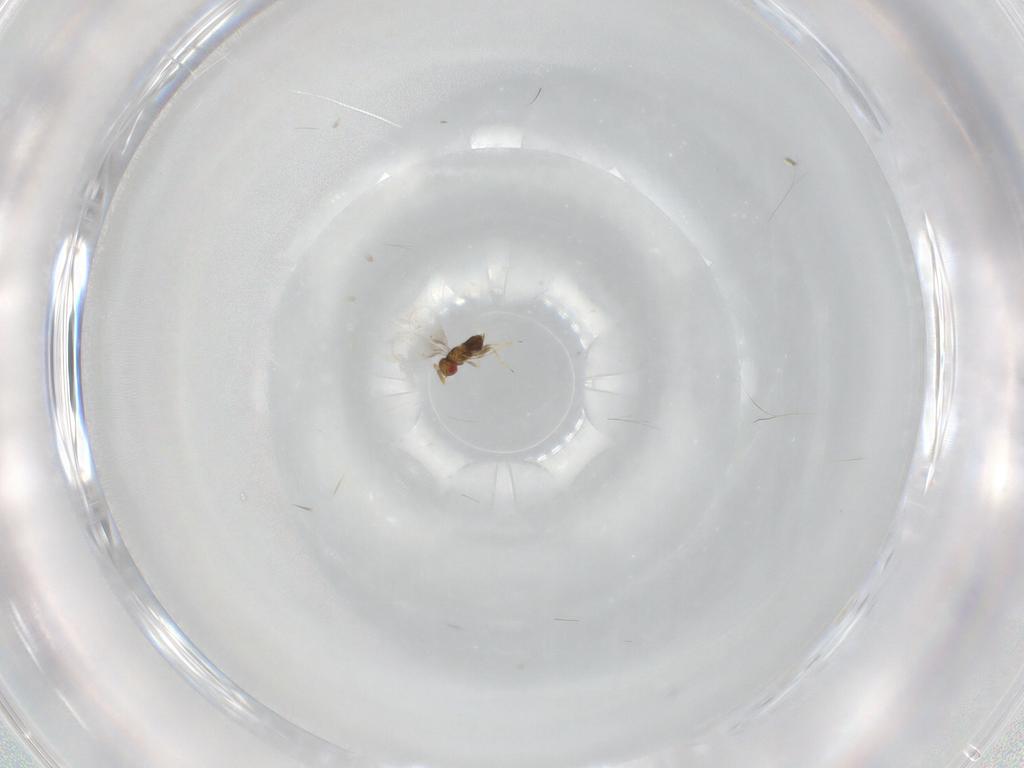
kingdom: Animalia
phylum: Arthropoda
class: Insecta
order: Hymenoptera
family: Trichogrammatidae
